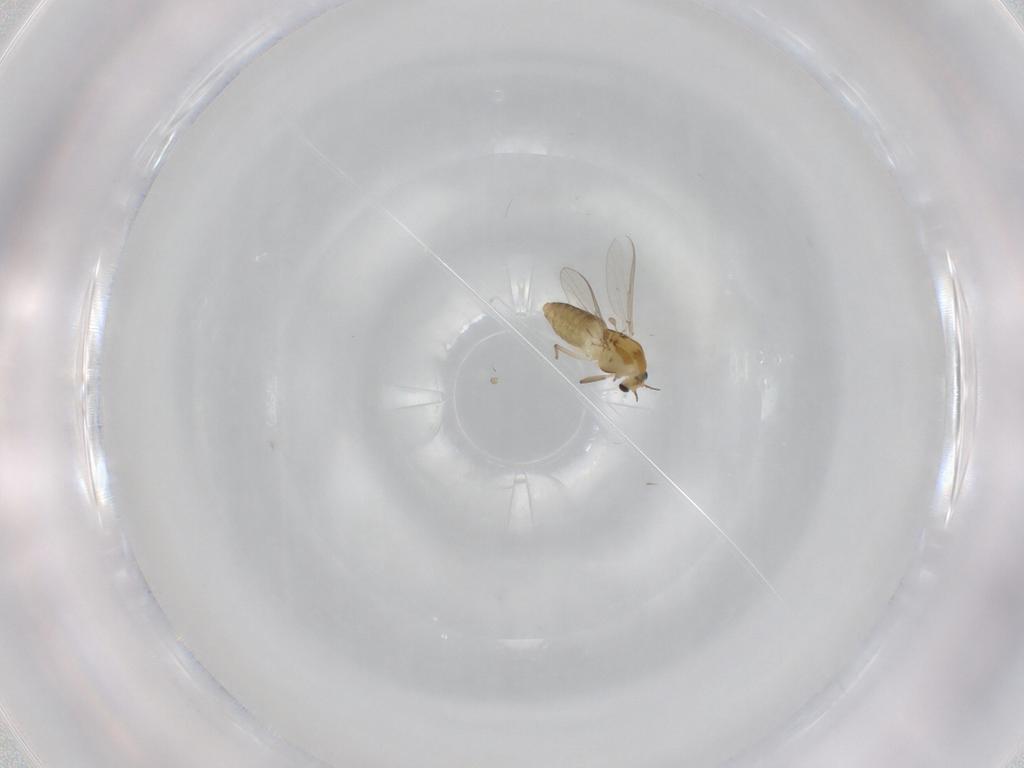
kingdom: Animalia
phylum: Arthropoda
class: Insecta
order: Diptera
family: Chironomidae
